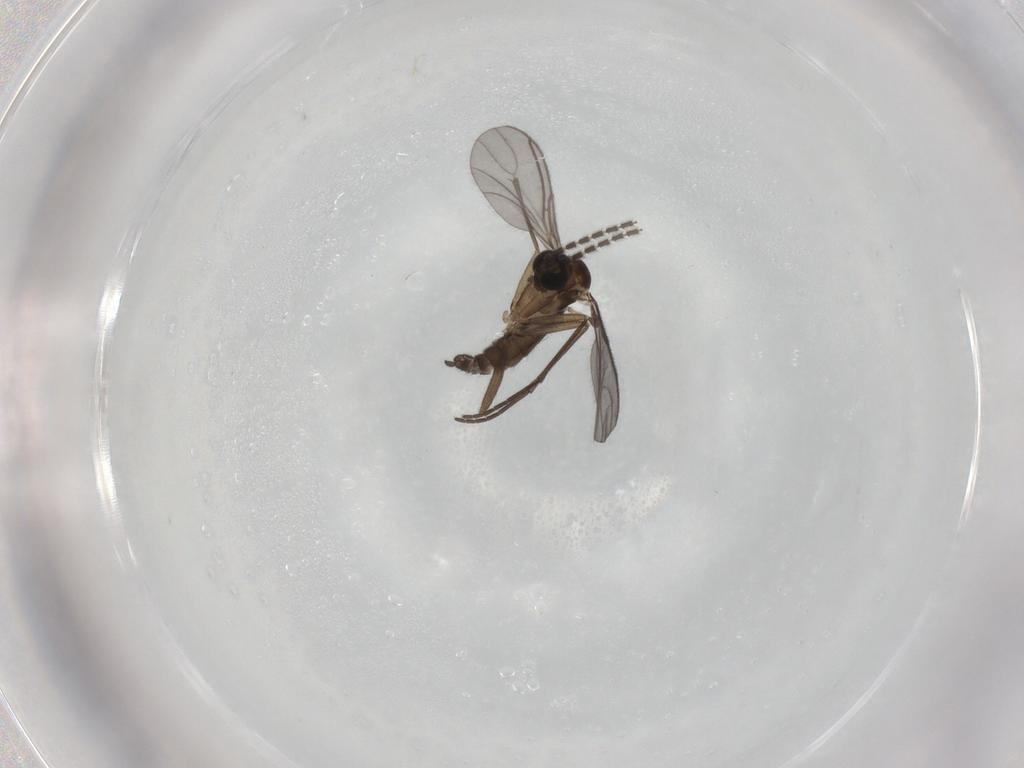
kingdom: Animalia
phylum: Arthropoda
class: Insecta
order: Diptera
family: Sciaridae
